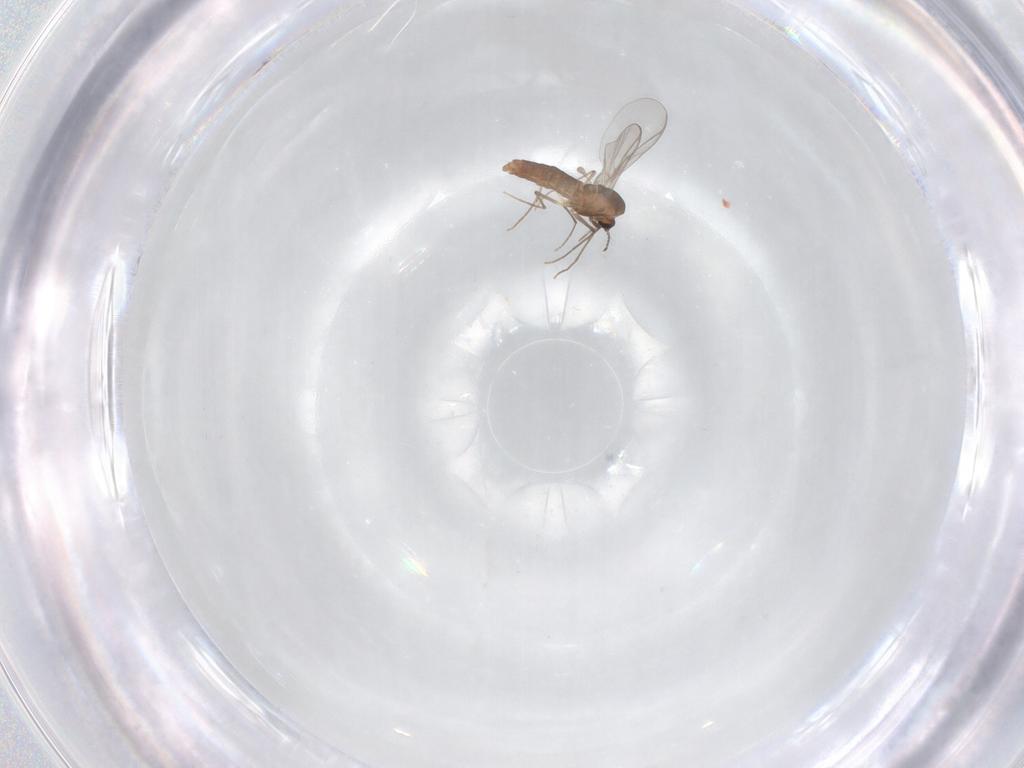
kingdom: Animalia
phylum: Arthropoda
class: Insecta
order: Diptera
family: Chironomidae
